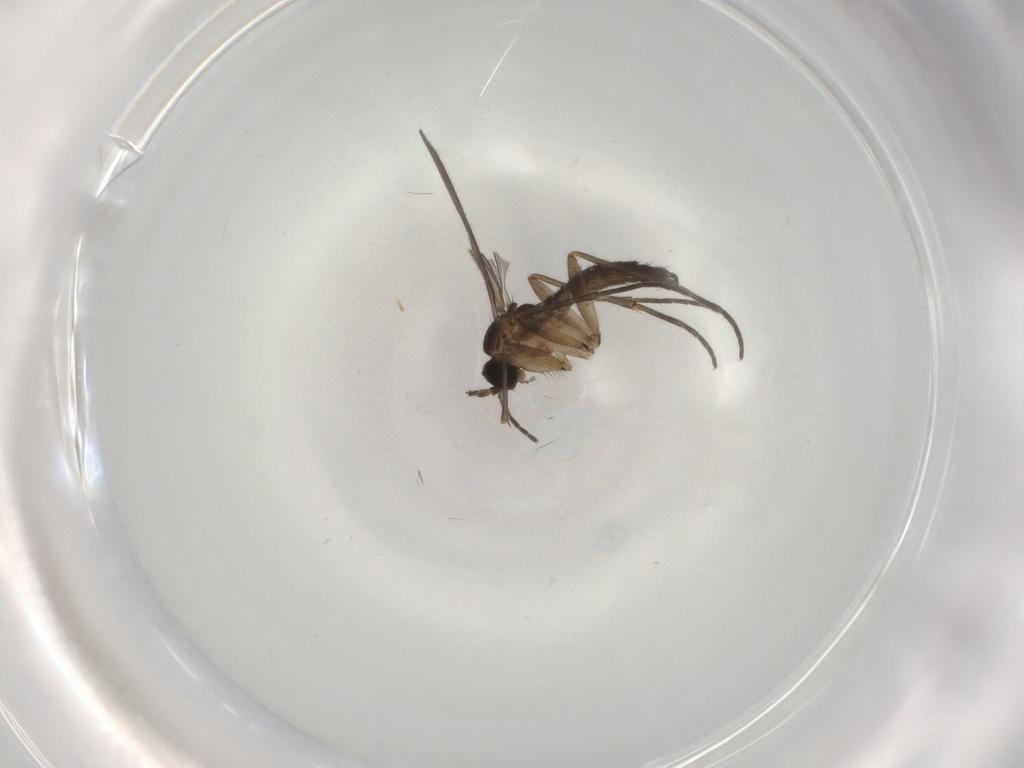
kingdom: Animalia
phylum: Arthropoda
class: Insecta
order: Diptera
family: Sciaridae
